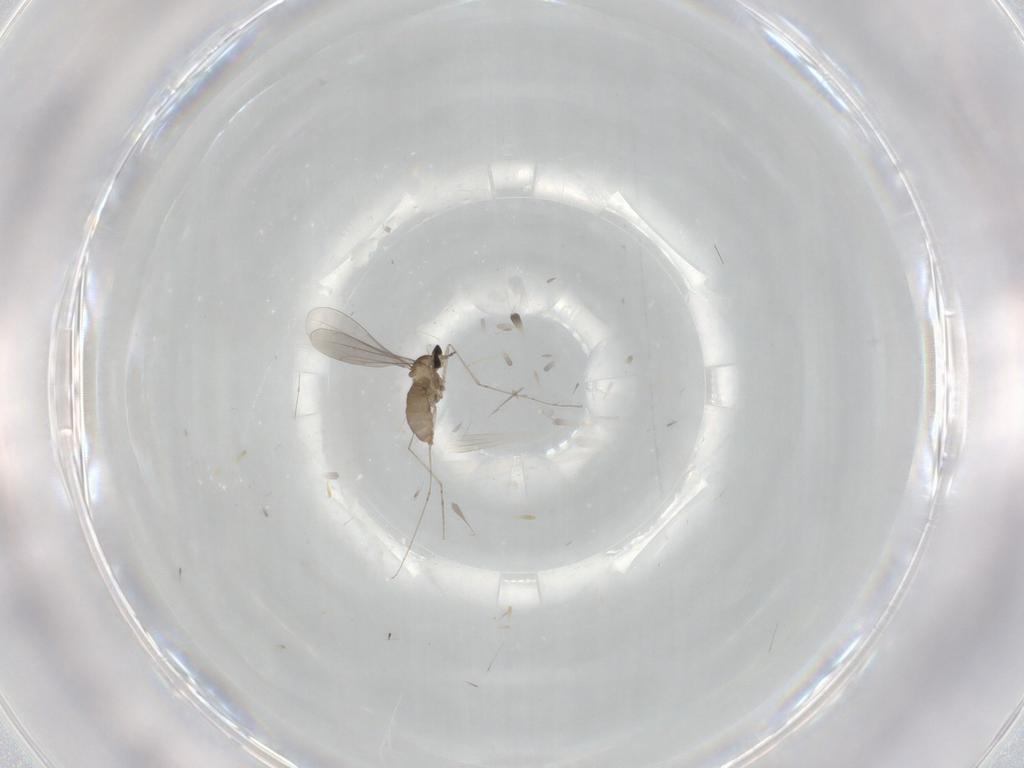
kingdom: Animalia
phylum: Arthropoda
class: Insecta
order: Diptera
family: Cecidomyiidae
